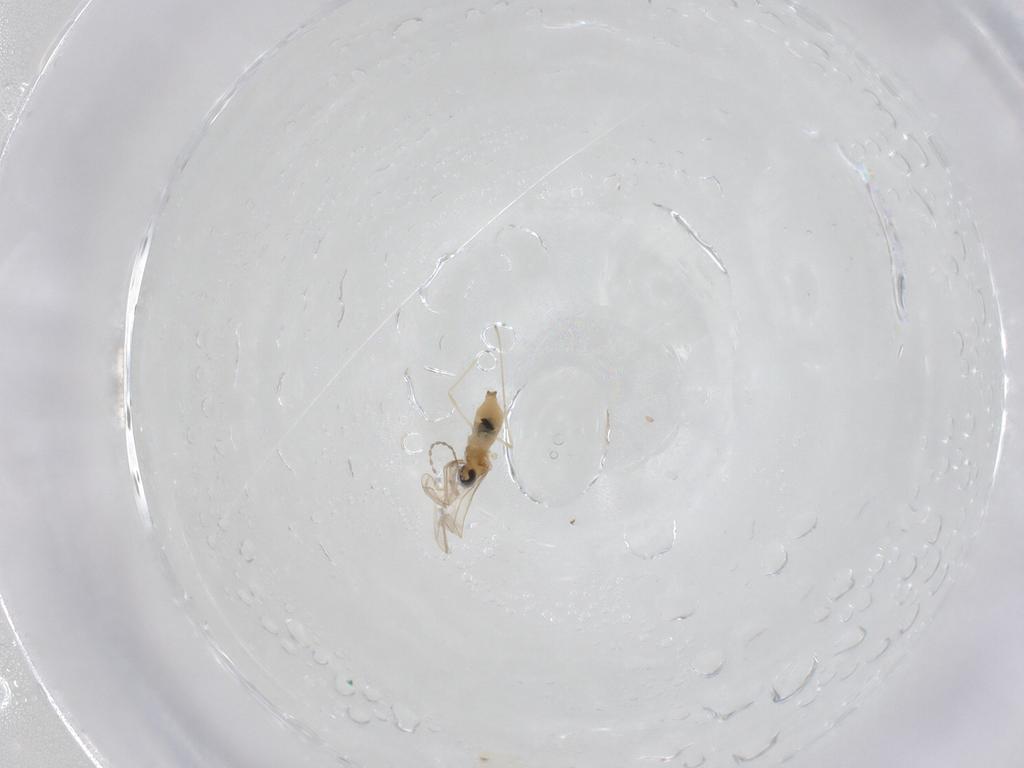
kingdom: Animalia
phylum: Arthropoda
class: Insecta
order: Diptera
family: Cecidomyiidae
